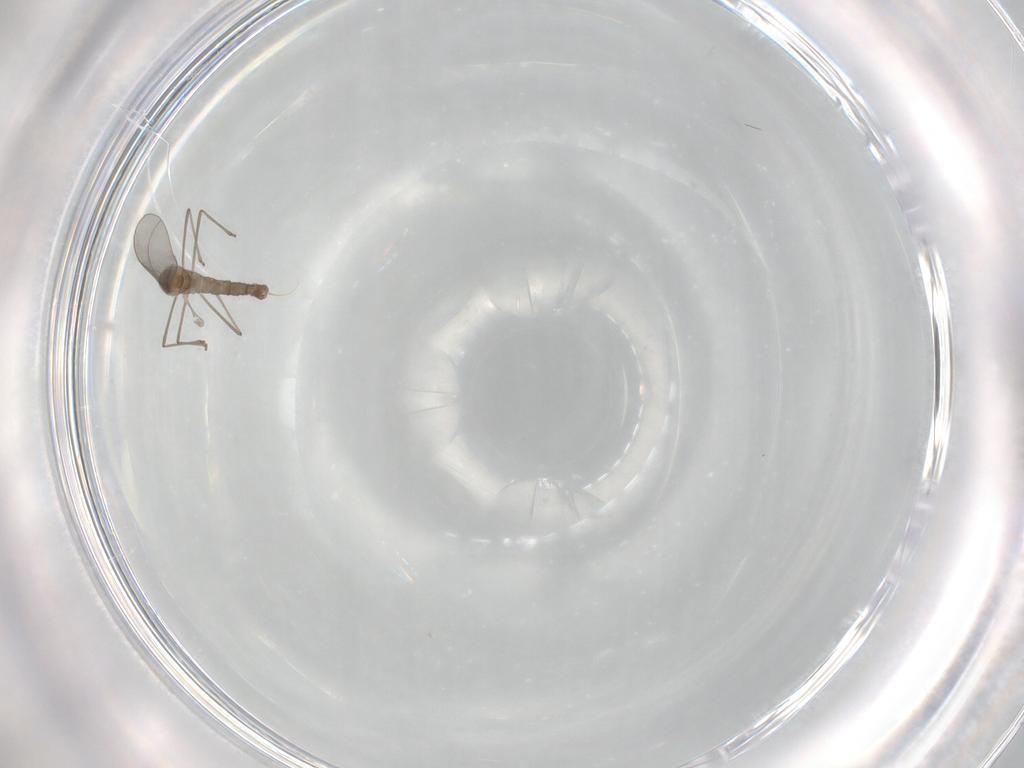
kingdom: Animalia
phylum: Arthropoda
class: Insecta
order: Diptera
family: Cecidomyiidae
